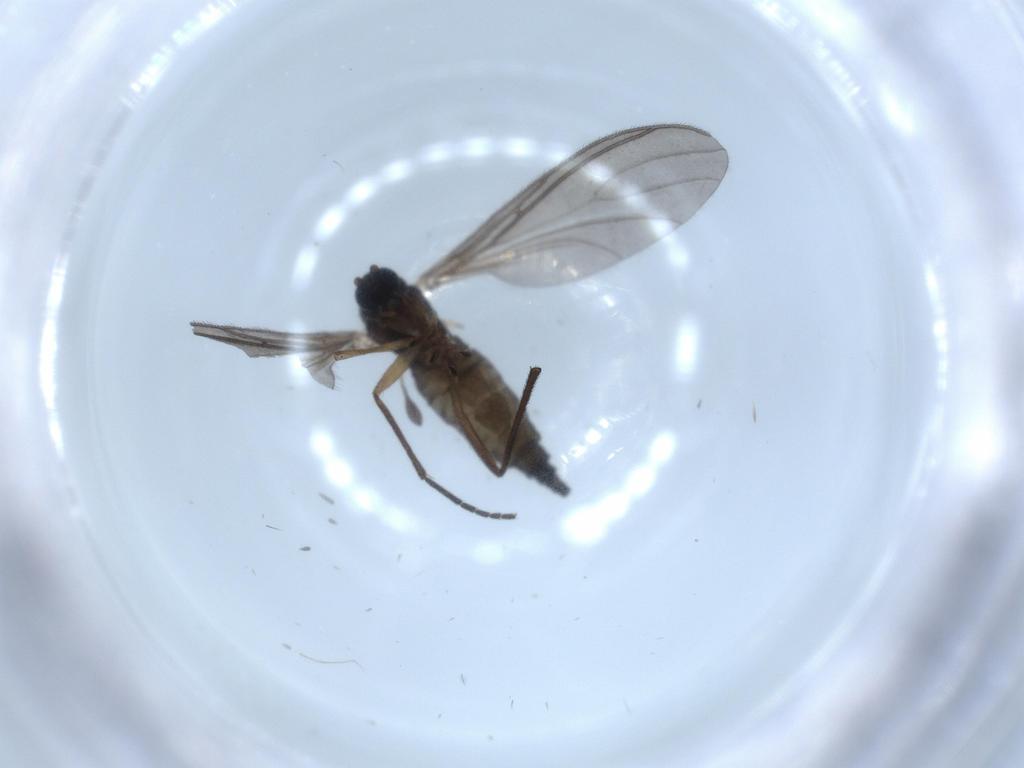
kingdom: Animalia
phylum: Arthropoda
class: Insecta
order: Diptera
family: Sciaridae
